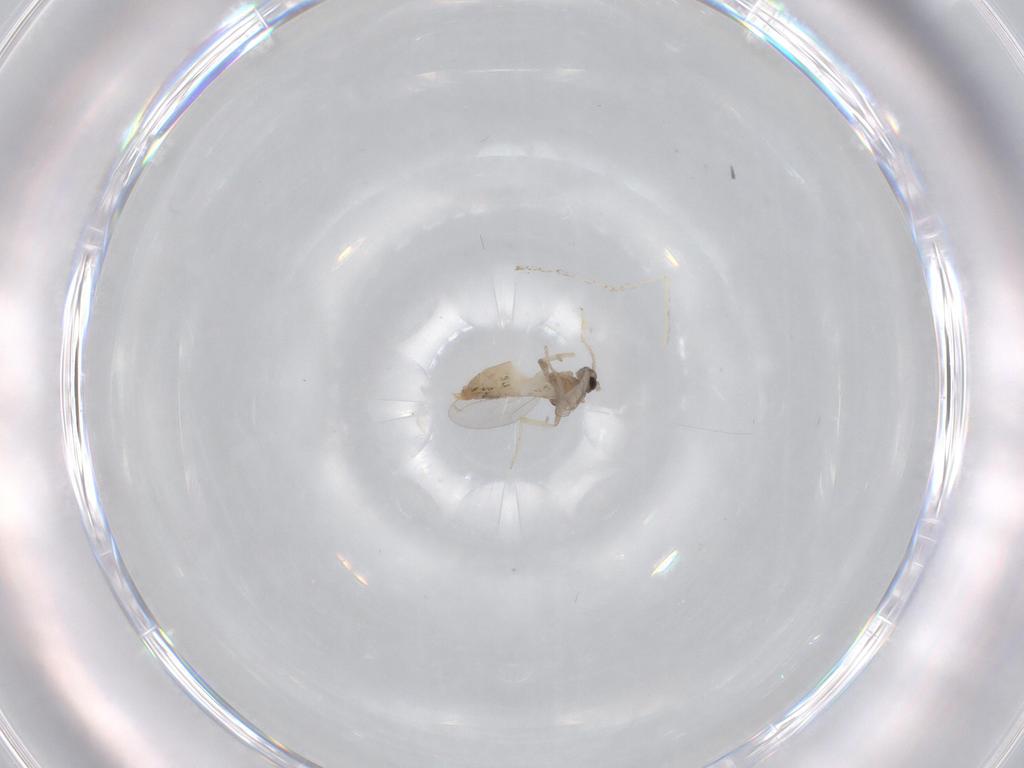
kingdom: Animalia
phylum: Arthropoda
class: Insecta
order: Diptera
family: Cecidomyiidae
